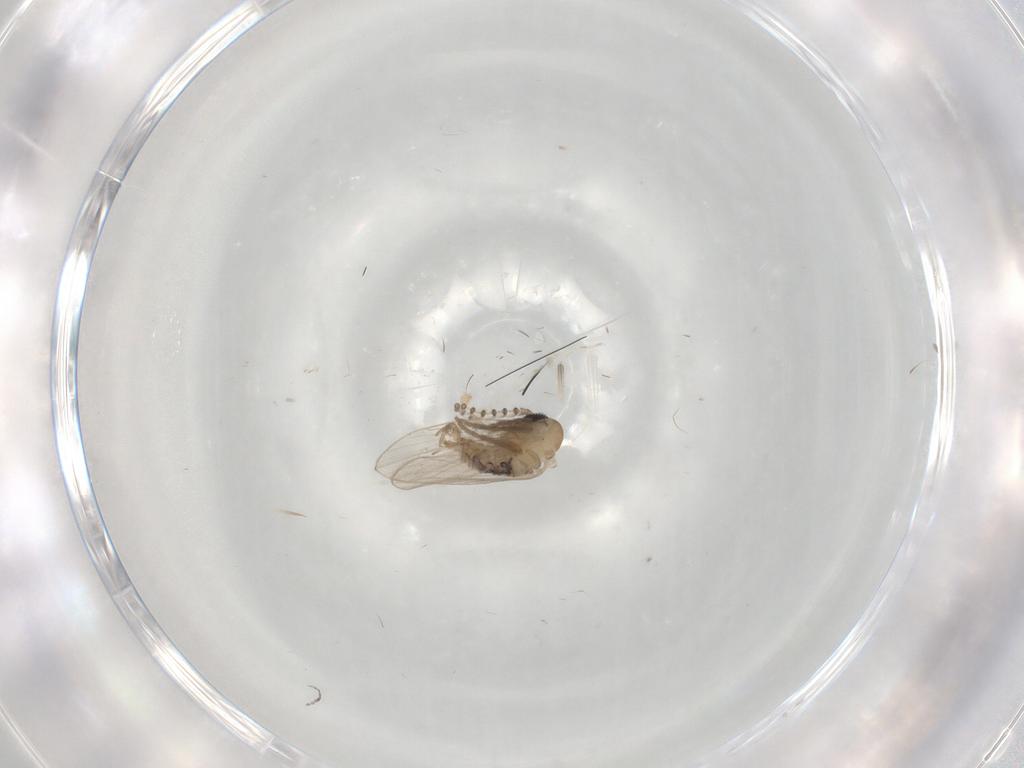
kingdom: Animalia
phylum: Arthropoda
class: Insecta
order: Diptera
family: Psychodidae
